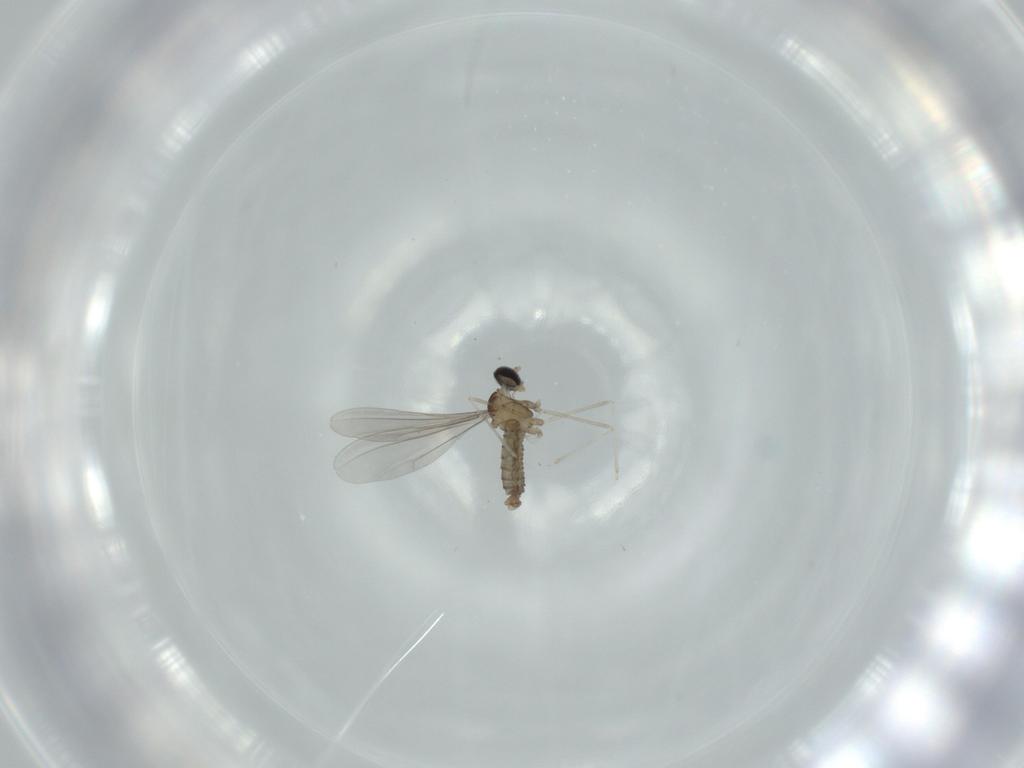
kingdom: Animalia
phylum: Arthropoda
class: Insecta
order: Diptera
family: Cecidomyiidae
